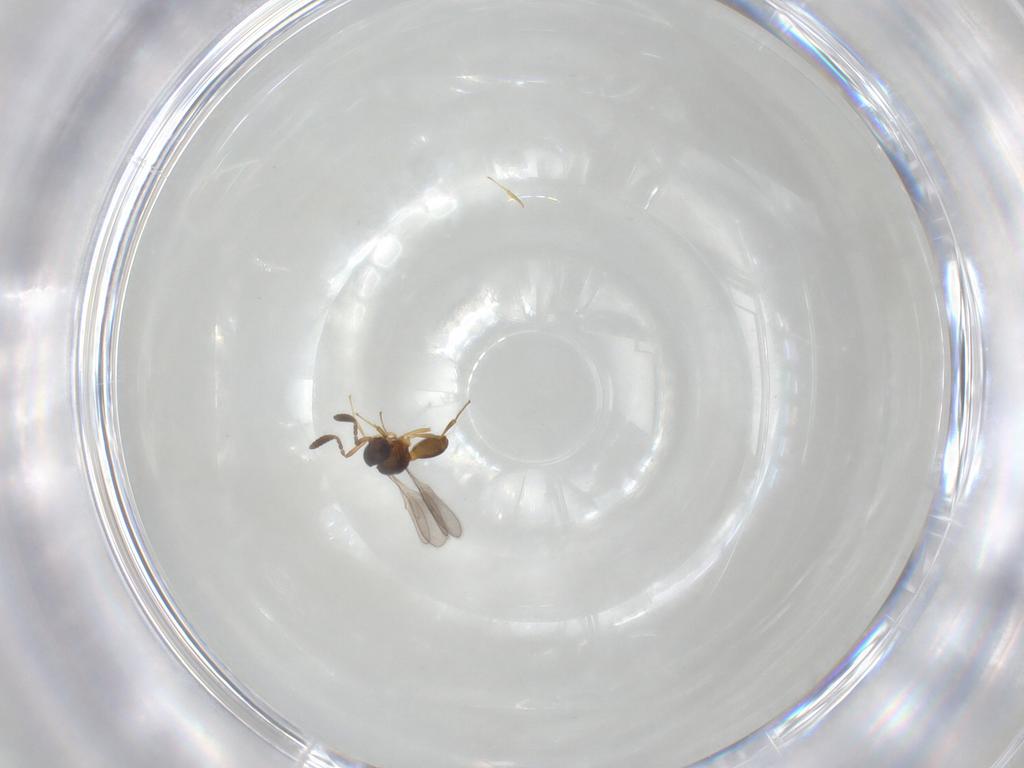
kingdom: Animalia
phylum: Arthropoda
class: Insecta
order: Hymenoptera
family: Scelionidae
